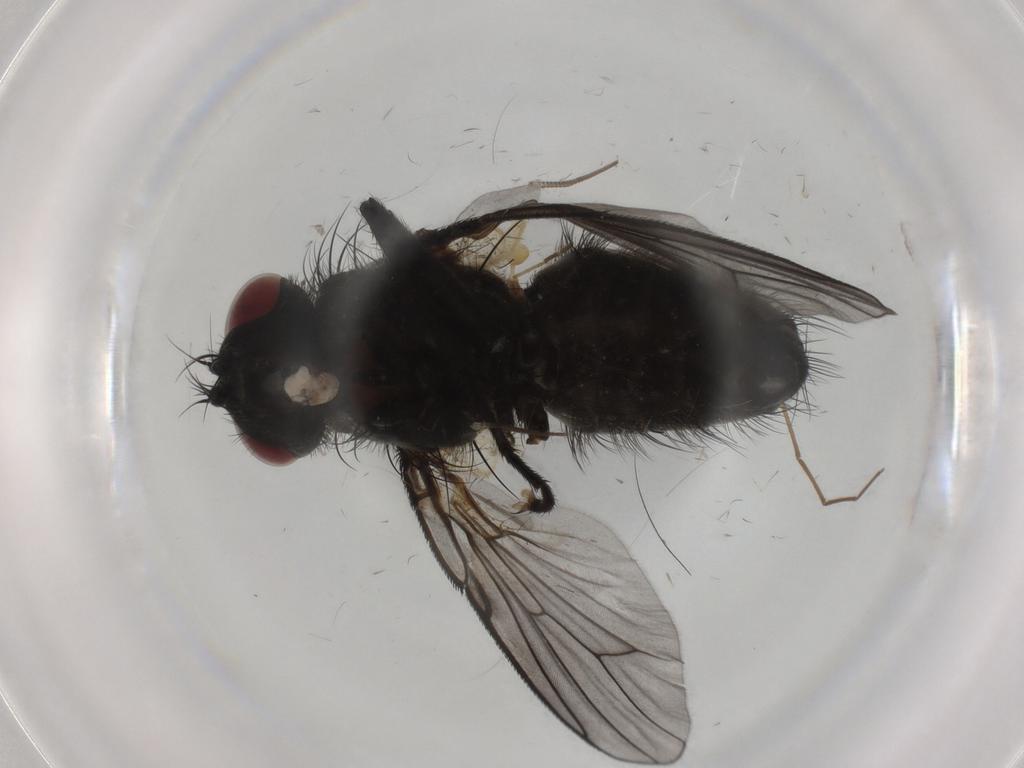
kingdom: Animalia
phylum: Arthropoda
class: Insecta
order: Diptera
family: Muscidae
